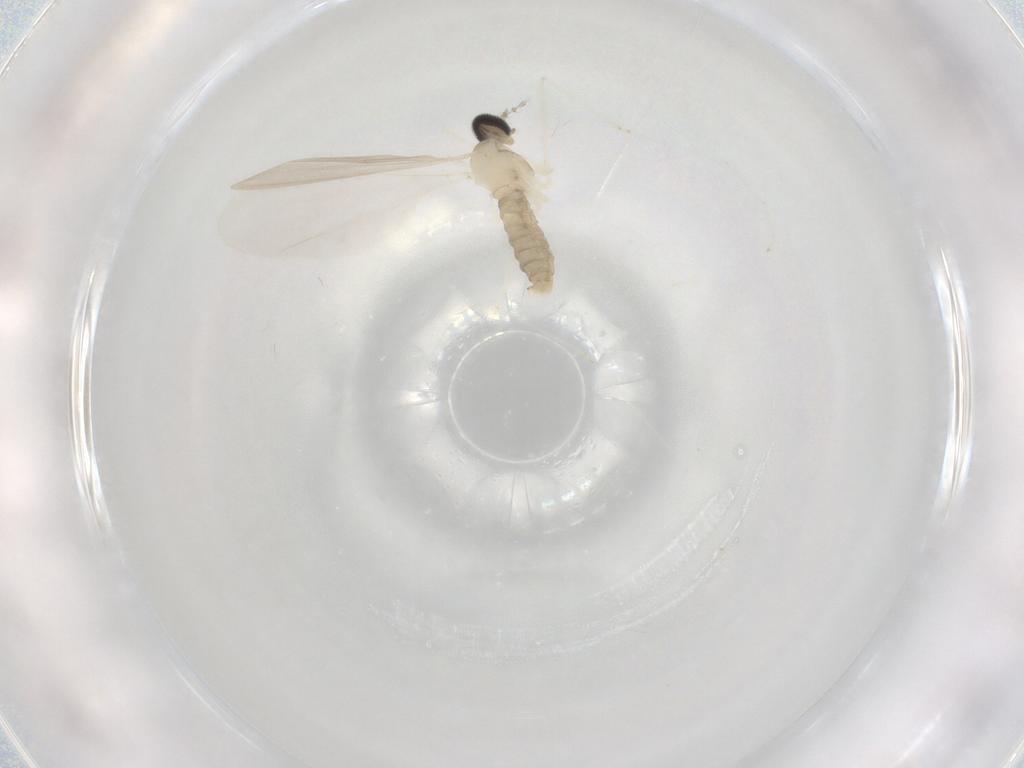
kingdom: Animalia
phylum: Arthropoda
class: Insecta
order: Diptera
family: Cecidomyiidae
